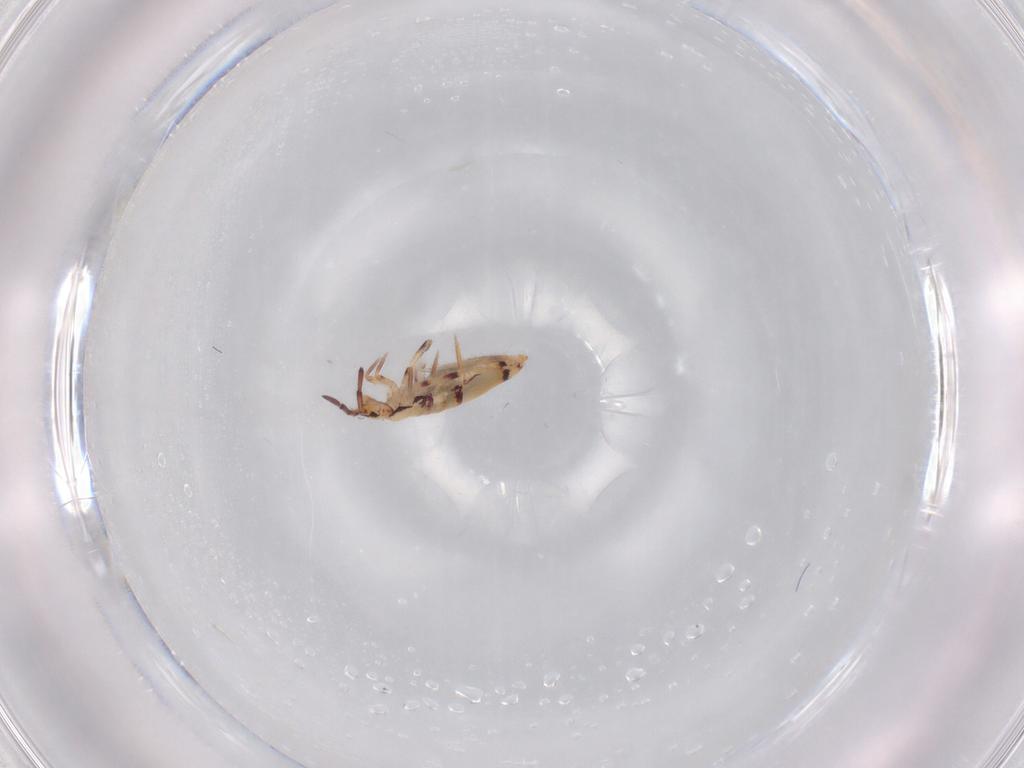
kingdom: Animalia
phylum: Arthropoda
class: Collembola
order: Entomobryomorpha
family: Entomobryidae
